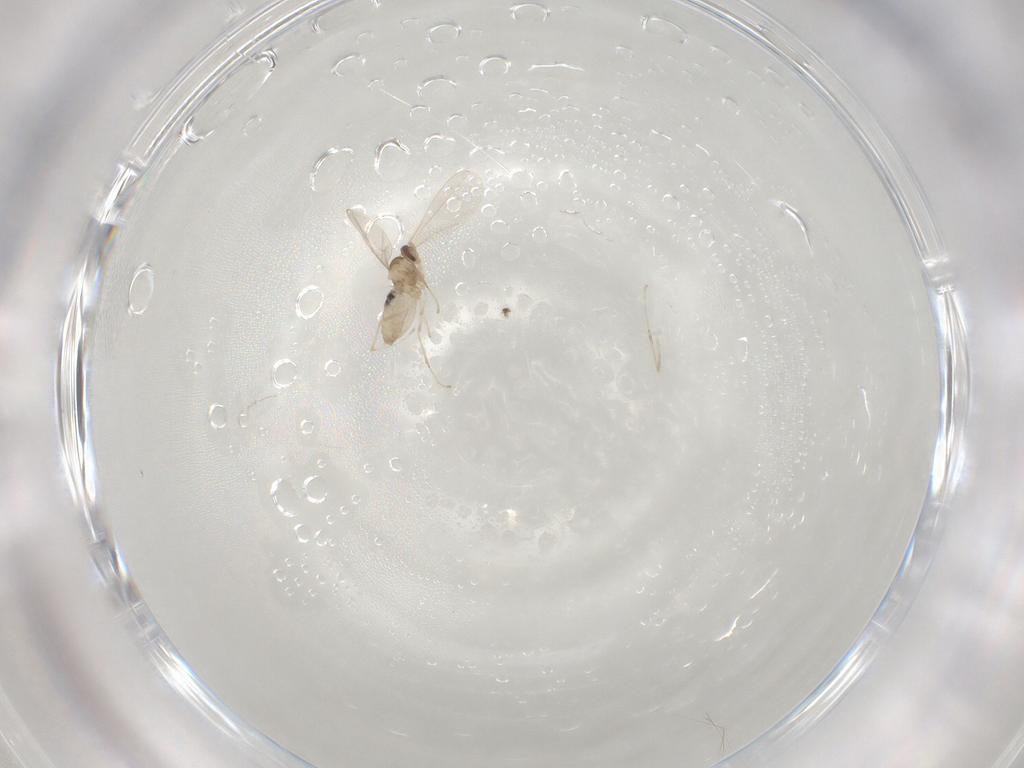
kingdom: Animalia
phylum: Arthropoda
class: Insecta
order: Diptera
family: Sciaridae
